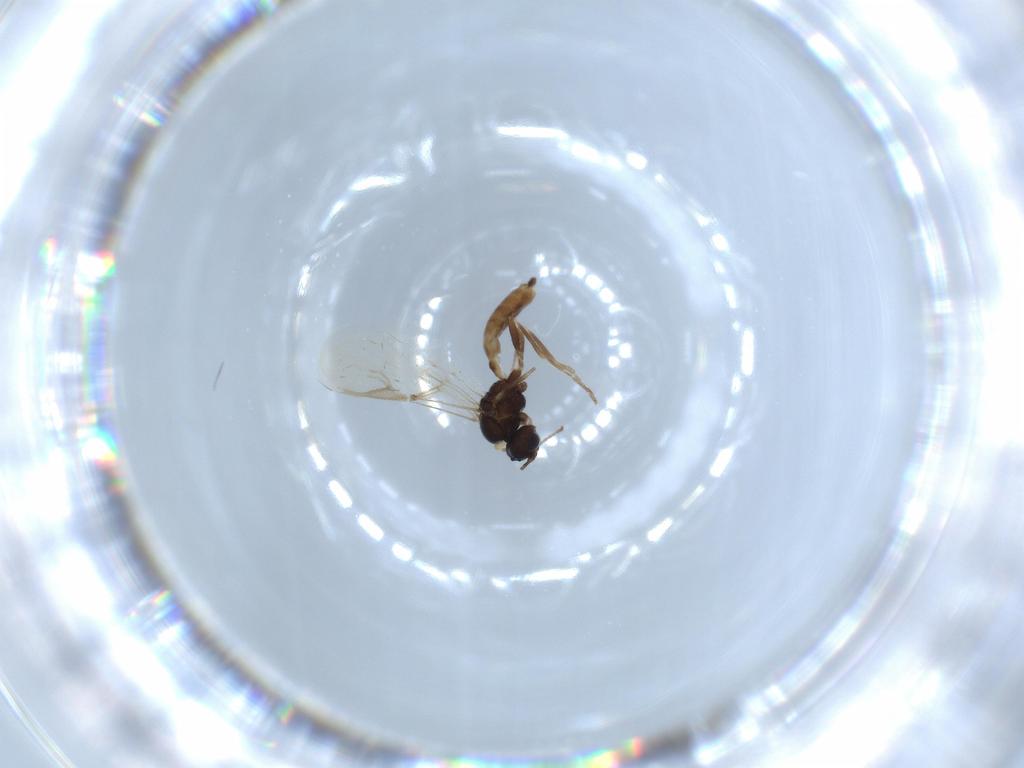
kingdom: Animalia
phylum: Arthropoda
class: Insecta
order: Hymenoptera
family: Braconidae
